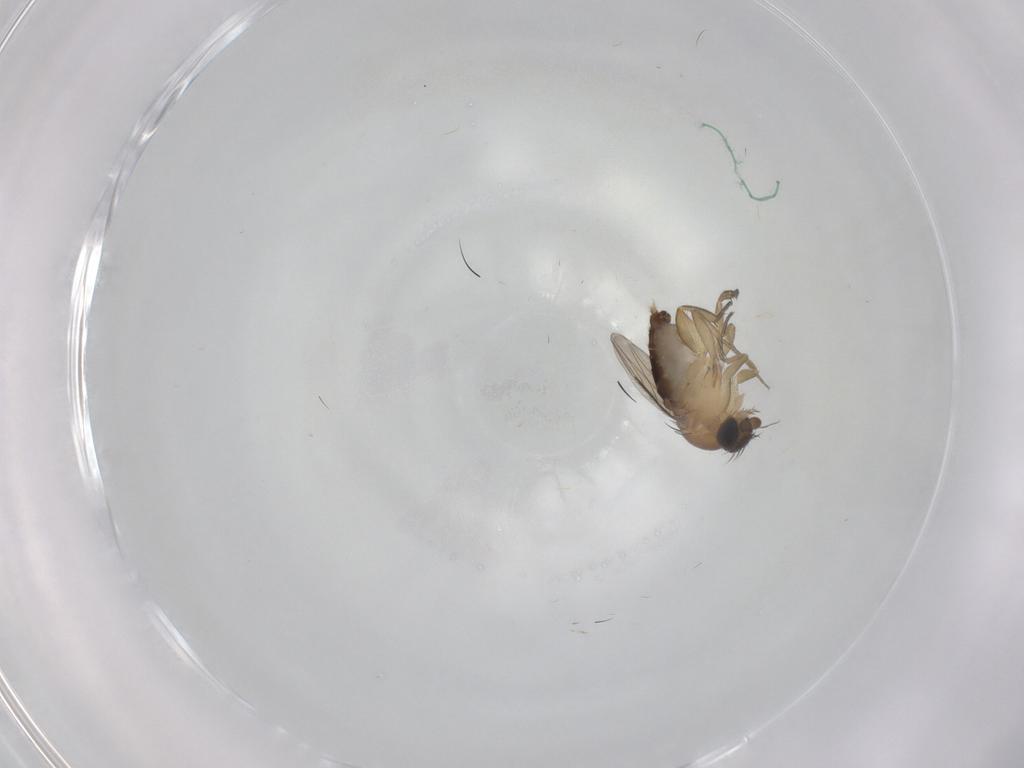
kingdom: Animalia
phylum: Arthropoda
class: Insecta
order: Diptera
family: Phoridae
